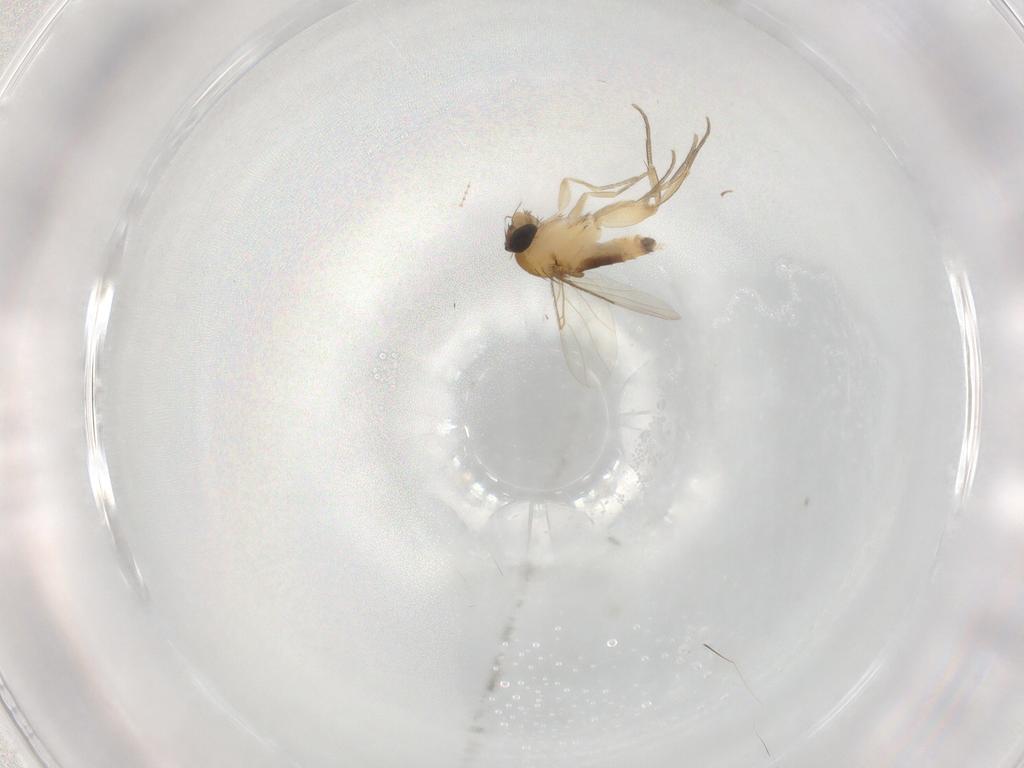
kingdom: Animalia
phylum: Arthropoda
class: Insecta
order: Diptera
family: Phoridae
